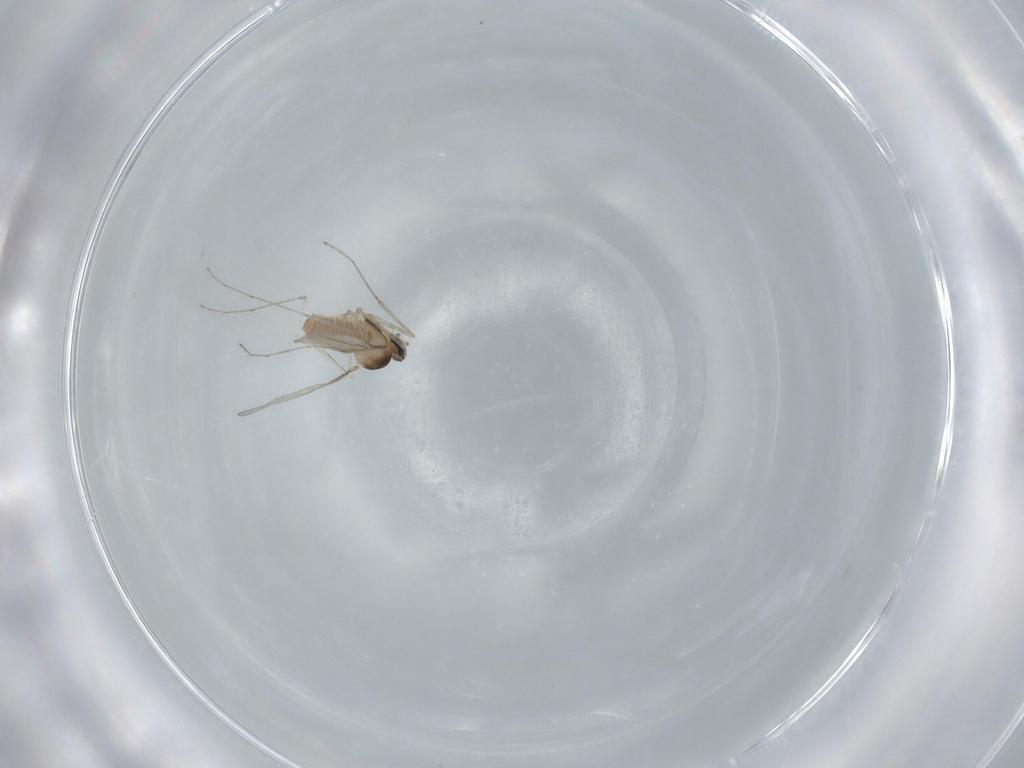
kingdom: Animalia
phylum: Arthropoda
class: Insecta
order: Diptera
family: Cecidomyiidae
